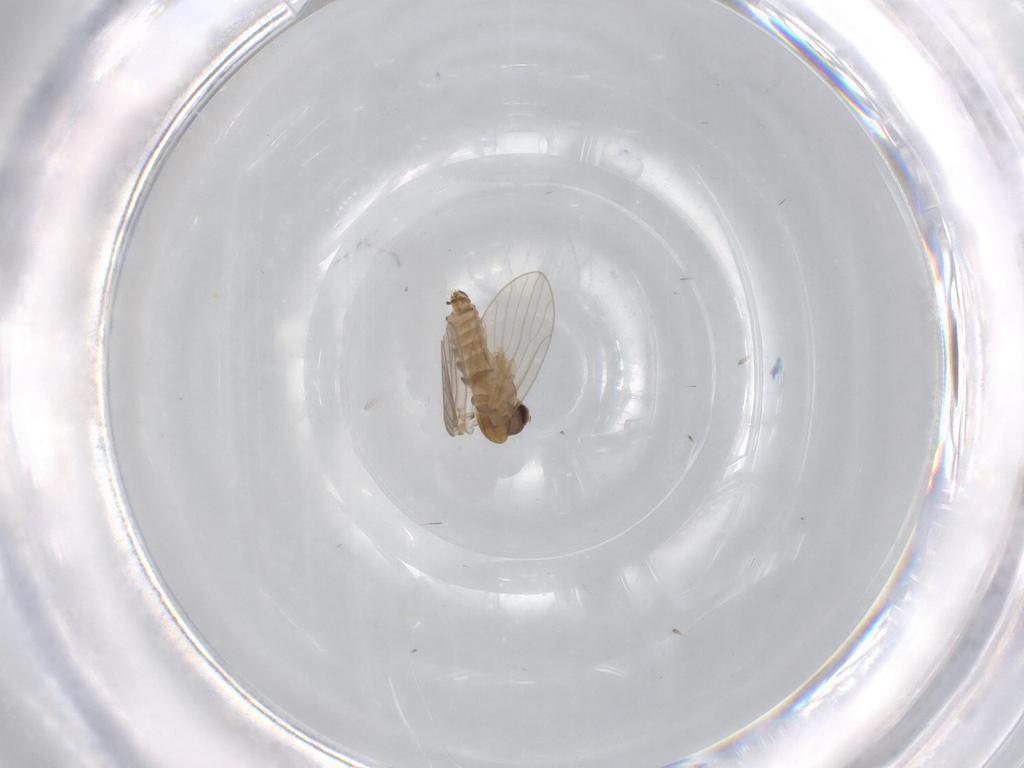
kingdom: Animalia
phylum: Arthropoda
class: Insecta
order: Diptera
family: Psychodidae
